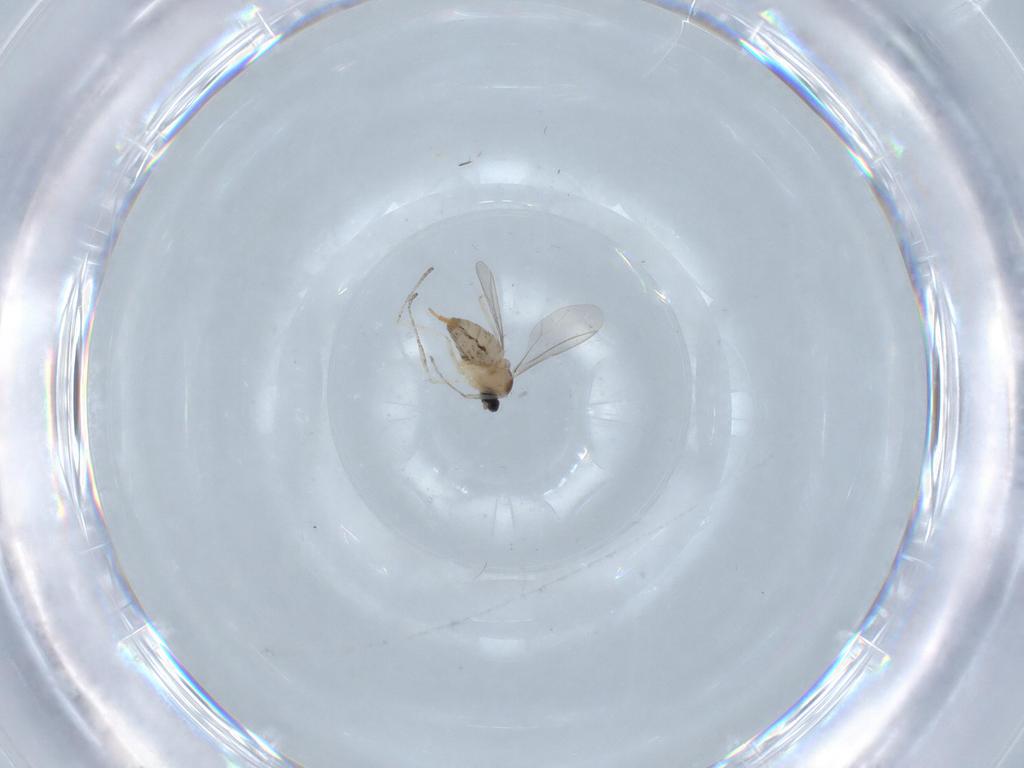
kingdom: Animalia
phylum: Arthropoda
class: Insecta
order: Diptera
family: Cecidomyiidae
